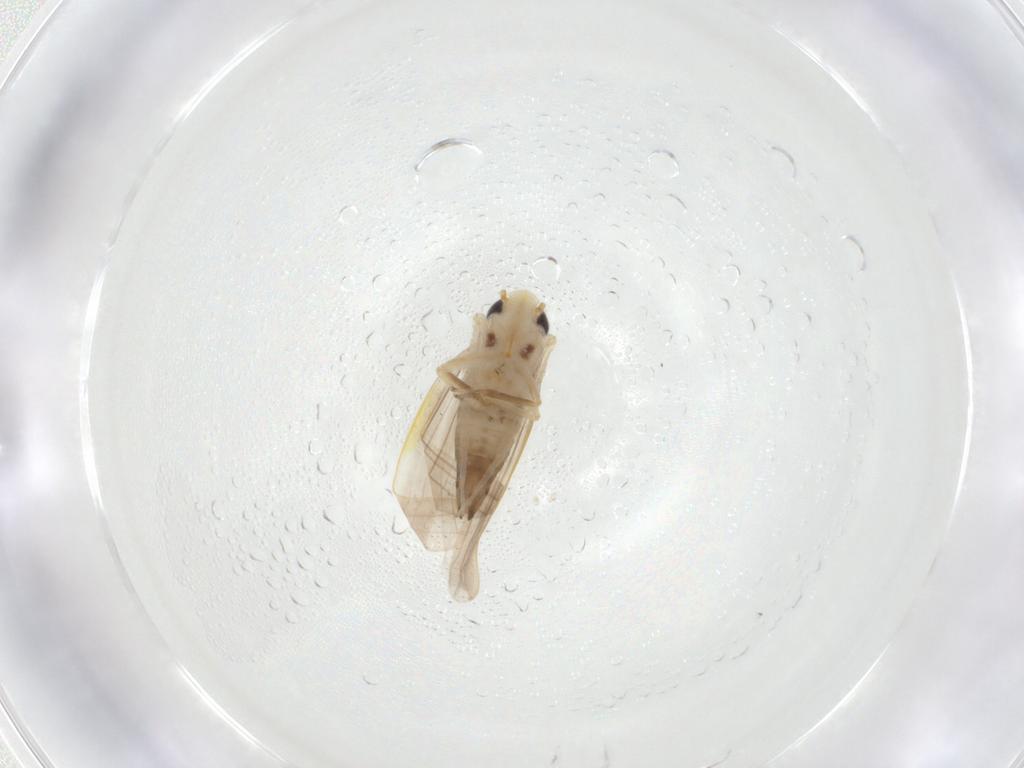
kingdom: Animalia
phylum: Arthropoda
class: Insecta
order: Hemiptera
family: Cicadellidae
